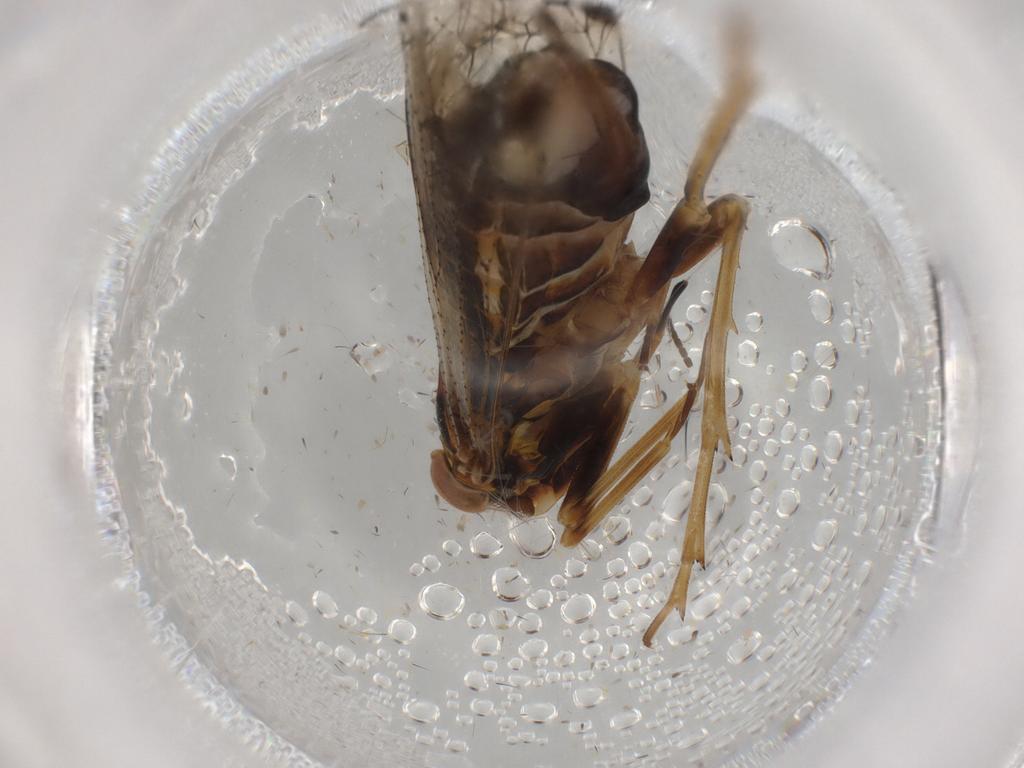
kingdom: Animalia
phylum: Arthropoda
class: Insecta
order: Hemiptera
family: Cixiidae
